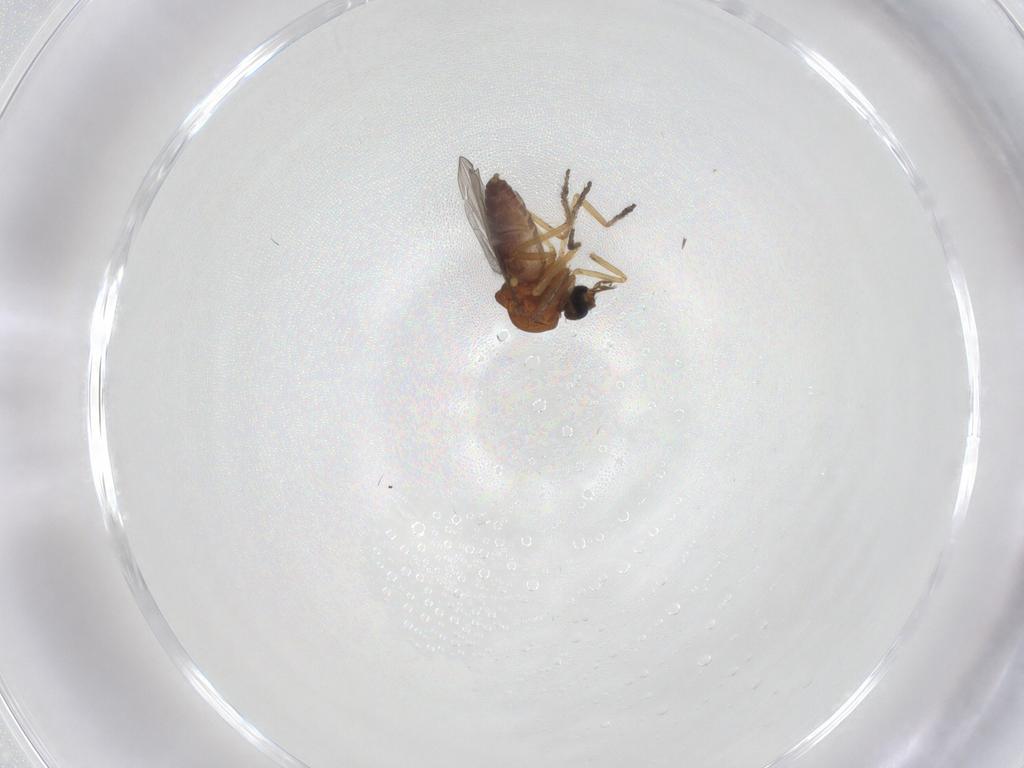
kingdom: Animalia
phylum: Arthropoda
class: Insecta
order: Diptera
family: Ceratopogonidae
